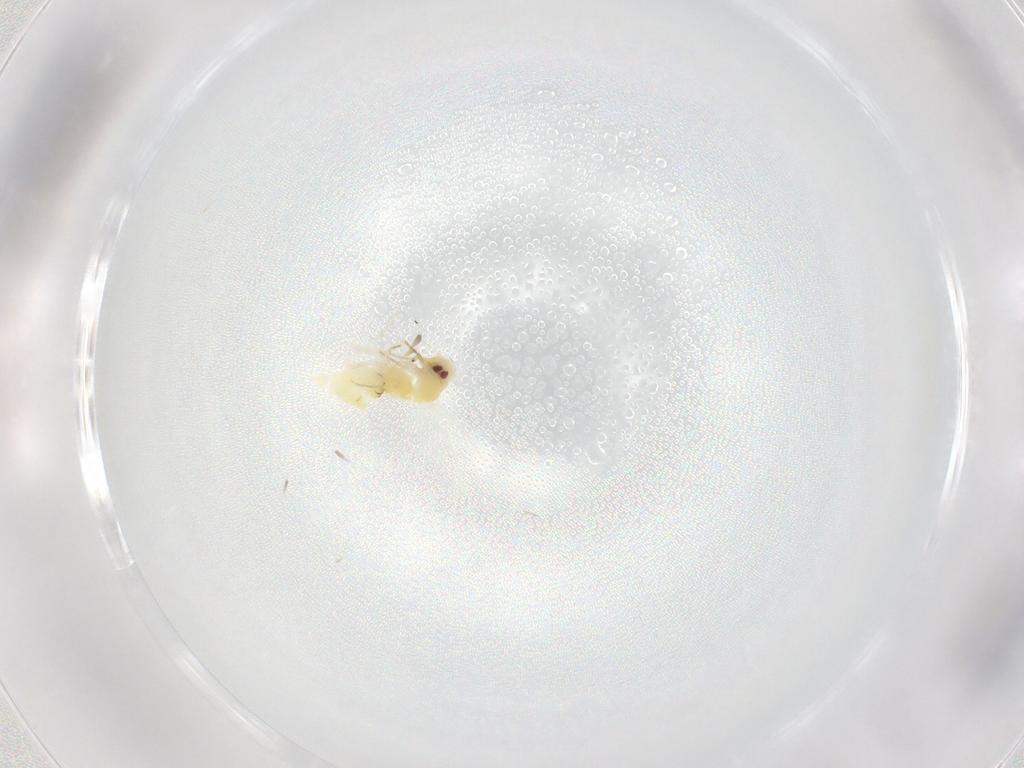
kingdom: Animalia
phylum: Arthropoda
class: Insecta
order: Hemiptera
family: Aleyrodidae
